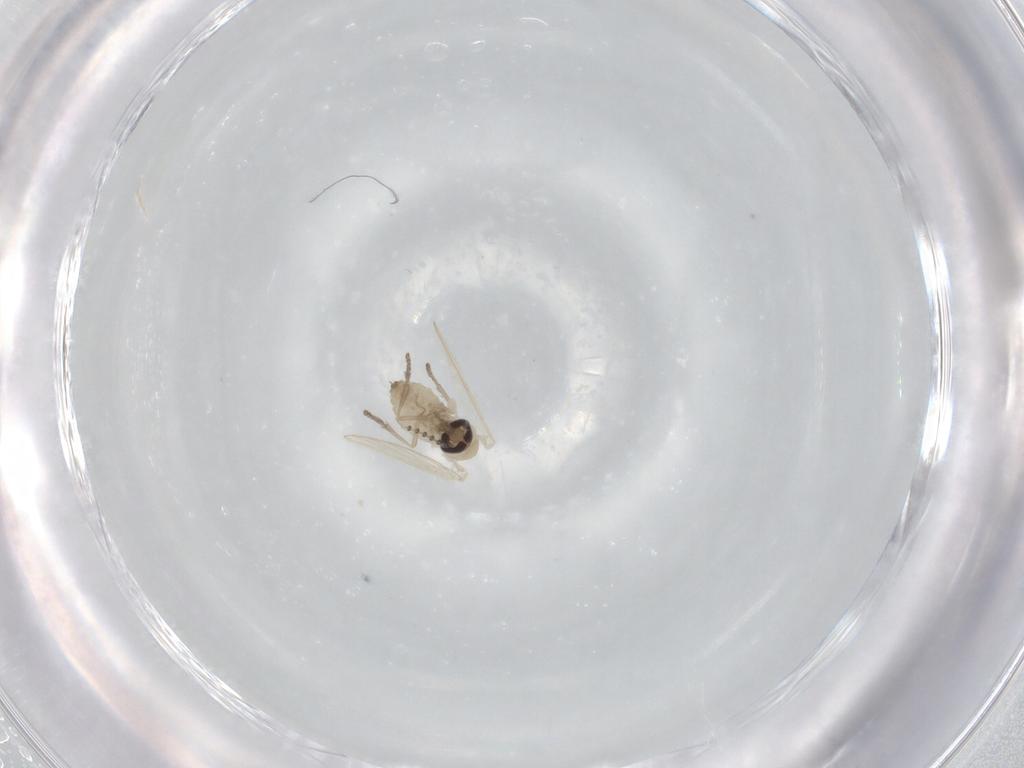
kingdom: Animalia
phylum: Arthropoda
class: Insecta
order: Diptera
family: Psychodidae
